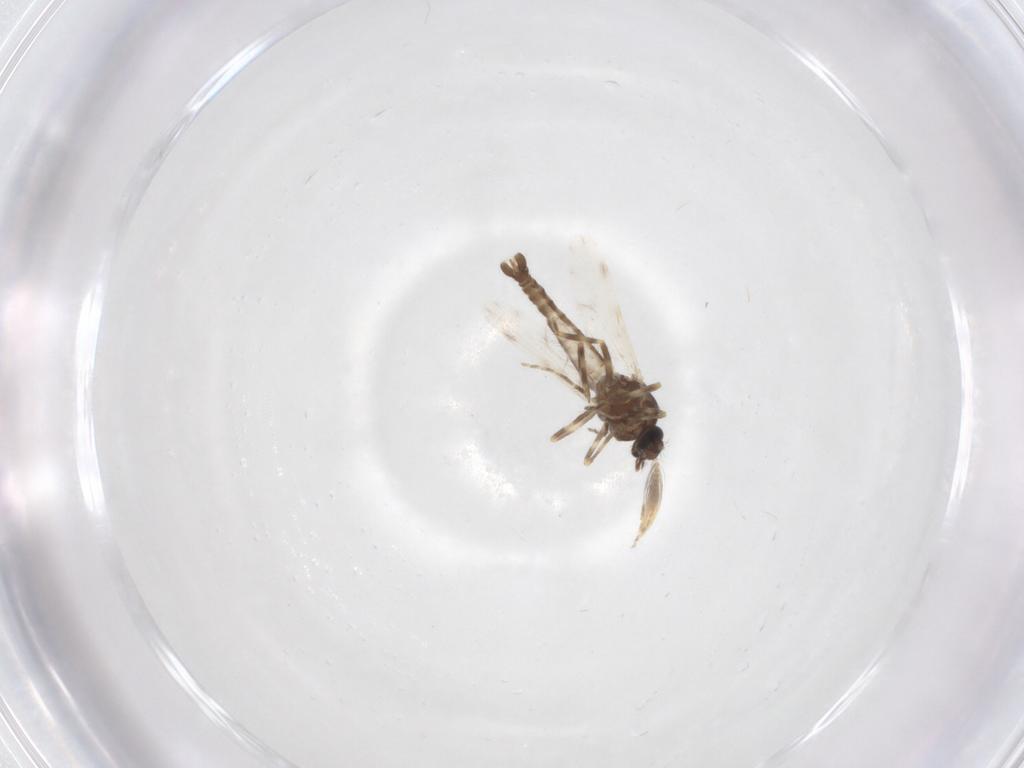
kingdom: Animalia
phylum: Arthropoda
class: Insecta
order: Diptera
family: Ceratopogonidae
